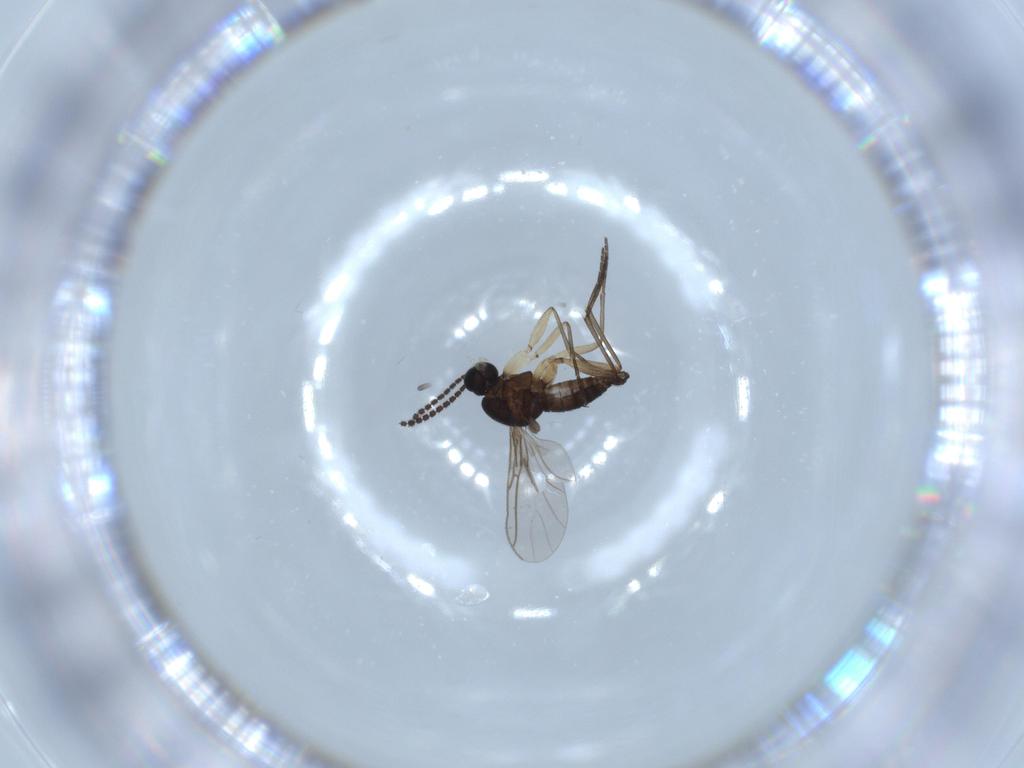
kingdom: Animalia
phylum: Arthropoda
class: Insecta
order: Diptera
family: Sciaridae
